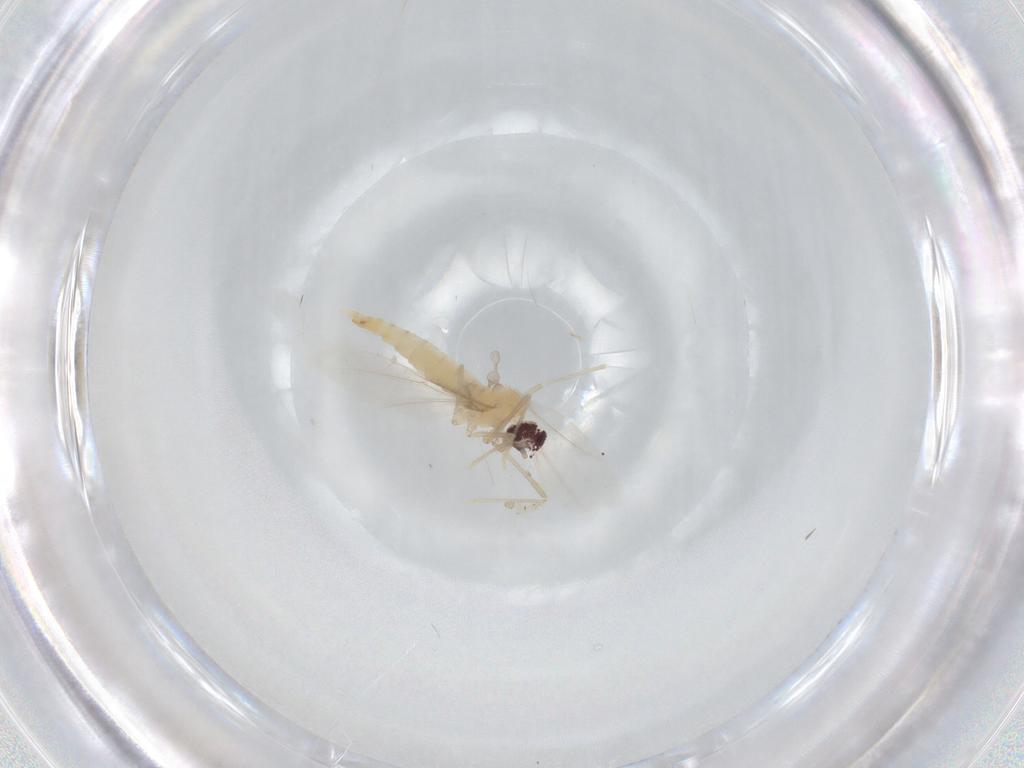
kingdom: Animalia
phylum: Arthropoda
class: Insecta
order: Diptera
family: Cecidomyiidae
